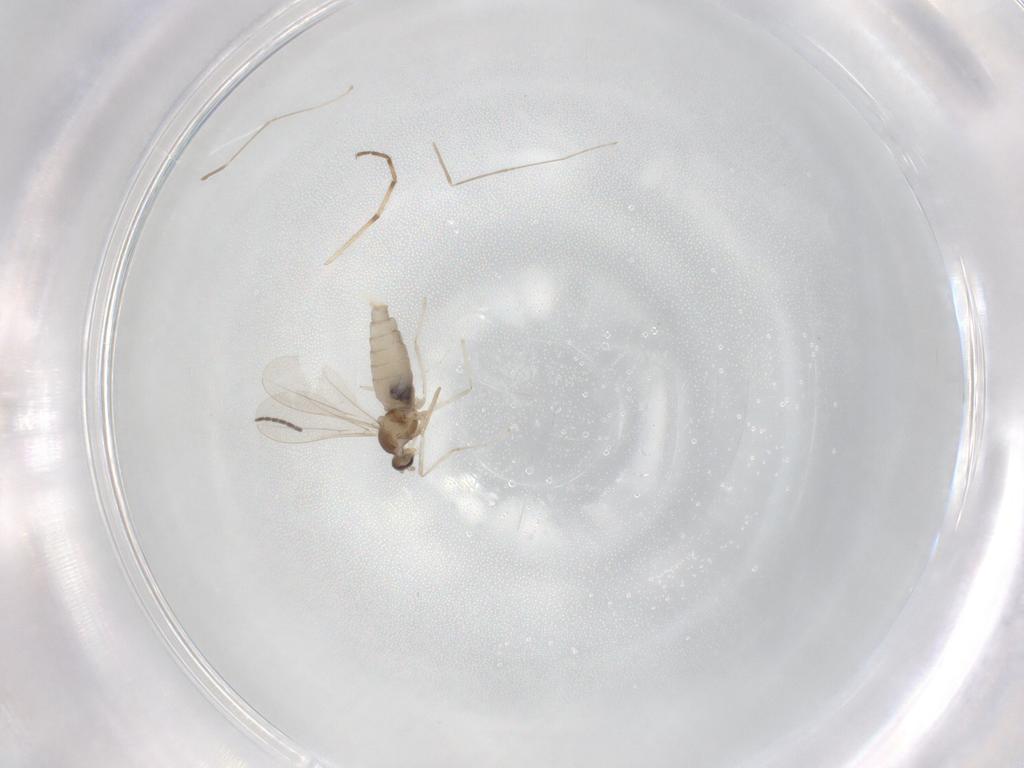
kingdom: Animalia
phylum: Arthropoda
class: Insecta
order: Diptera
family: Cecidomyiidae
